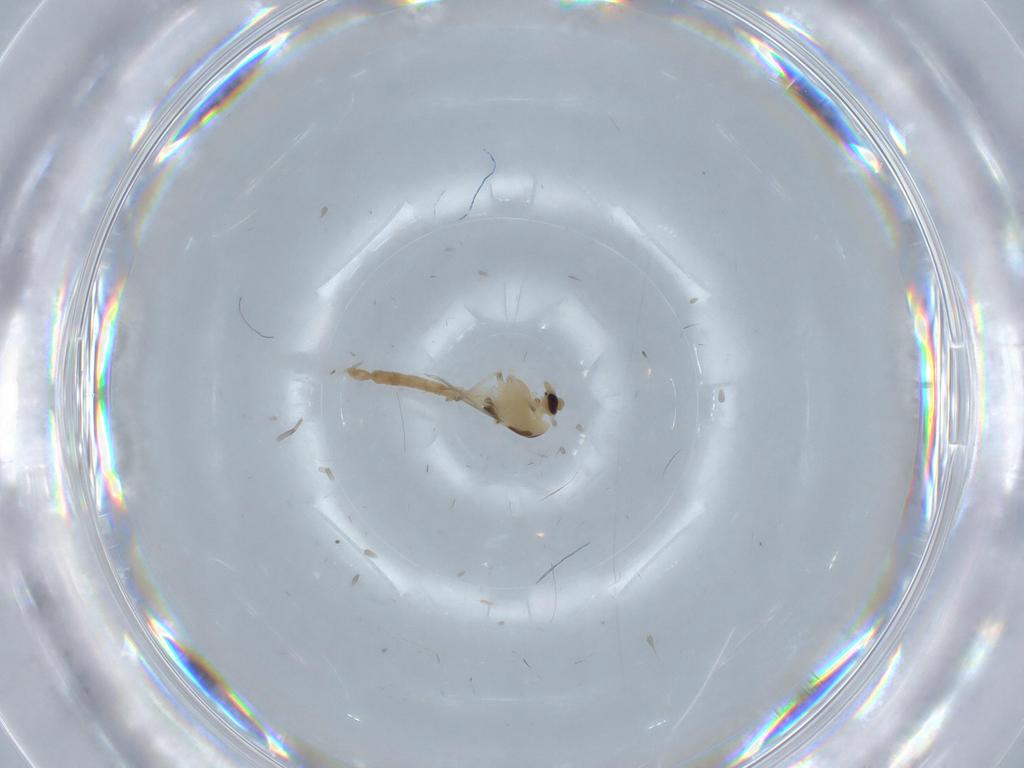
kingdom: Animalia
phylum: Arthropoda
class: Insecta
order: Diptera
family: Chironomidae
